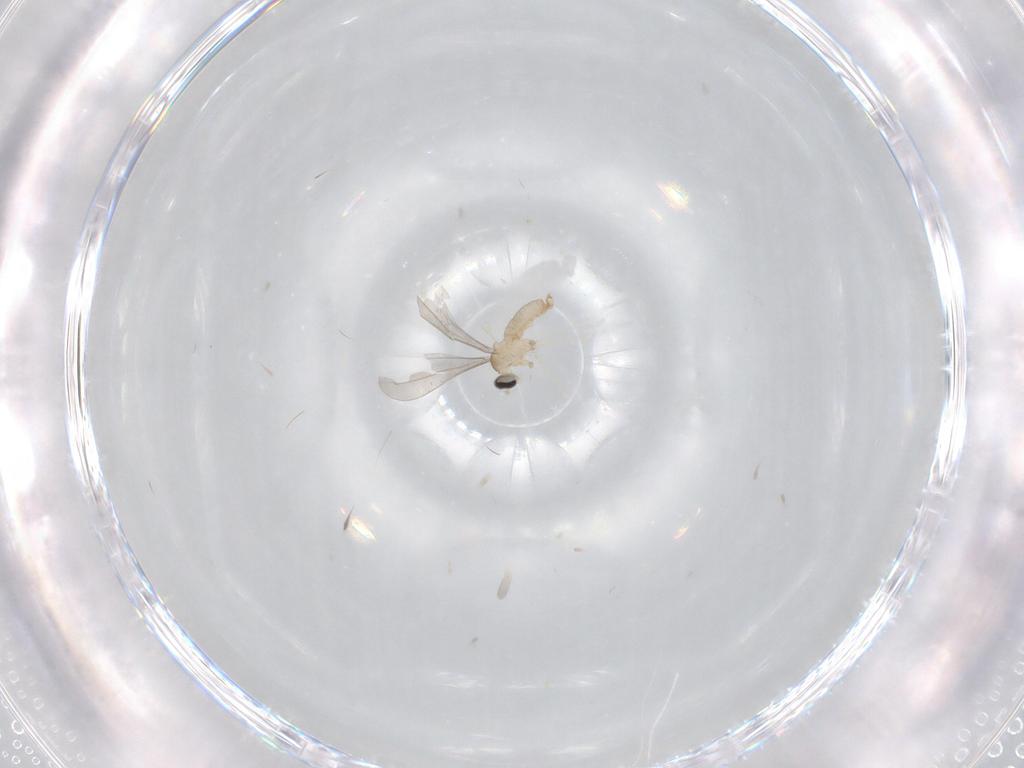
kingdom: Animalia
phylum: Arthropoda
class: Insecta
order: Diptera
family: Cecidomyiidae
